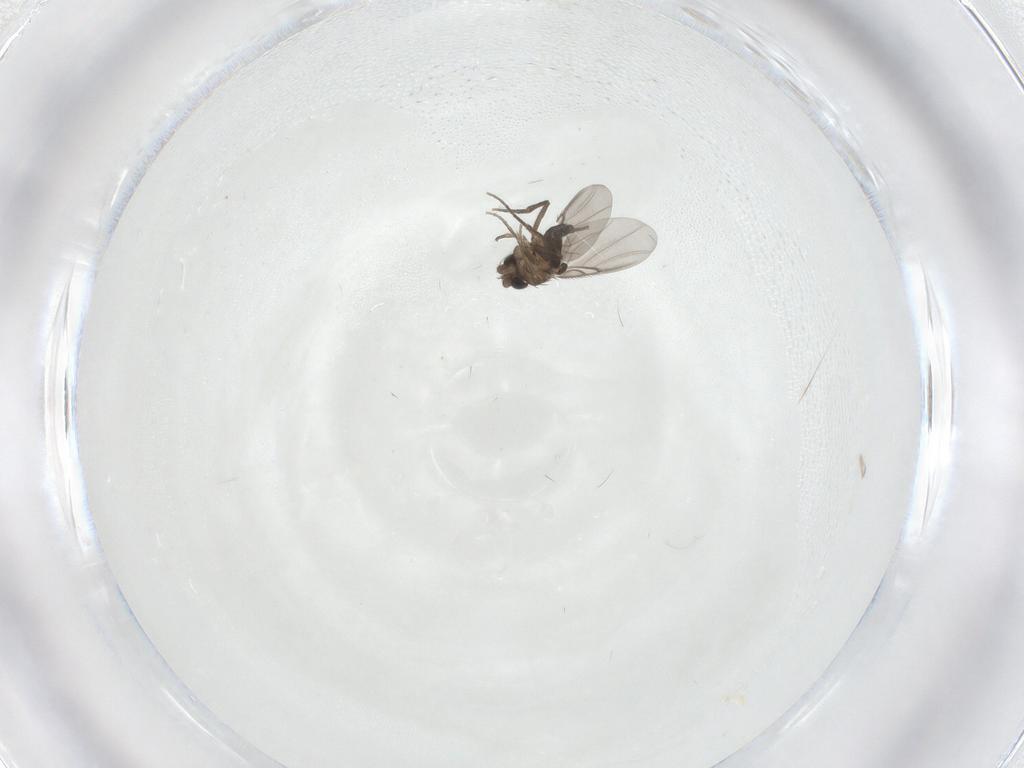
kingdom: Animalia
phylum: Arthropoda
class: Insecta
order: Diptera
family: Phoridae
